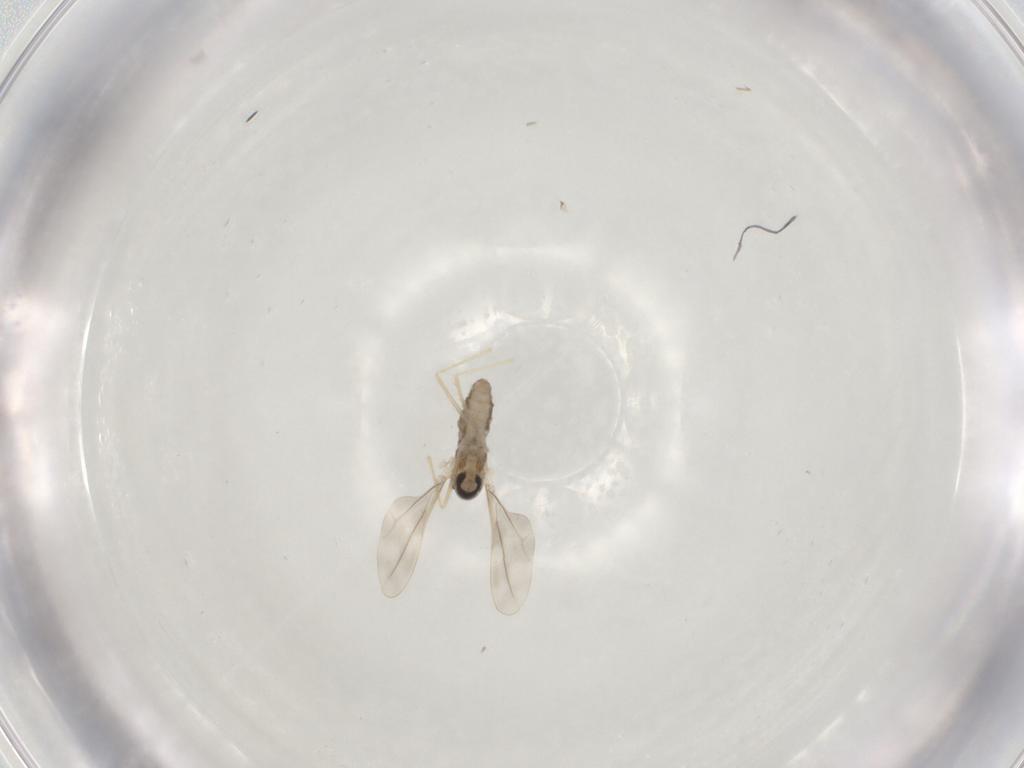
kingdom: Animalia
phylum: Arthropoda
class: Insecta
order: Diptera
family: Cecidomyiidae
